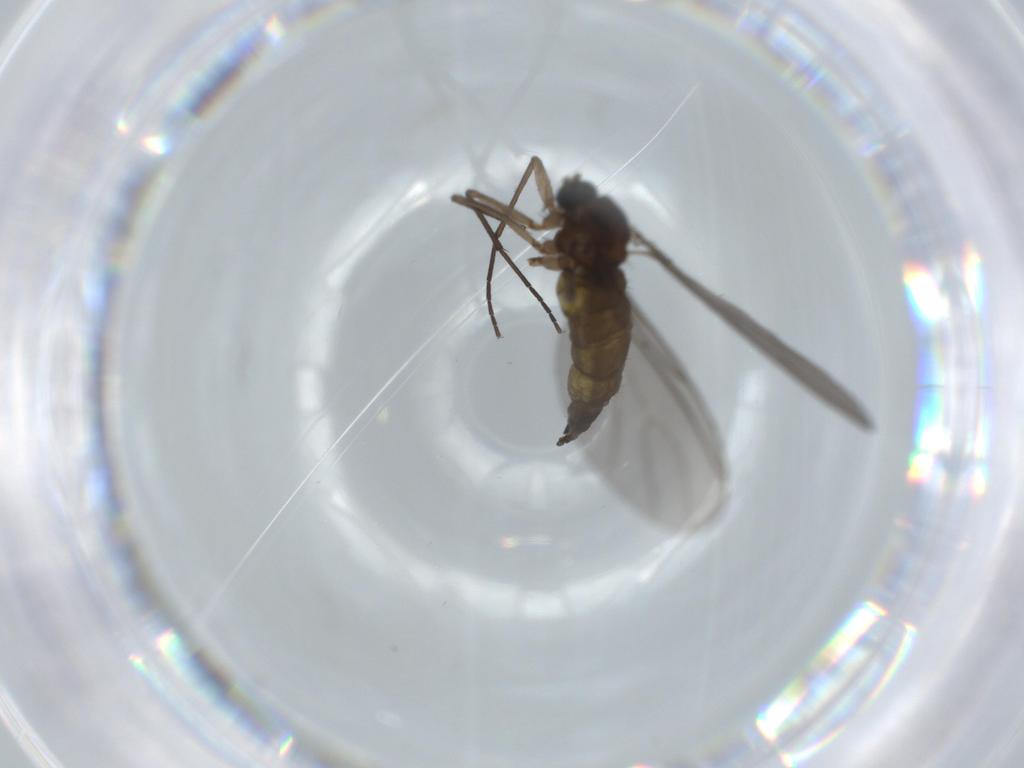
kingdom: Animalia
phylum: Arthropoda
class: Insecta
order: Diptera
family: Sciaridae
